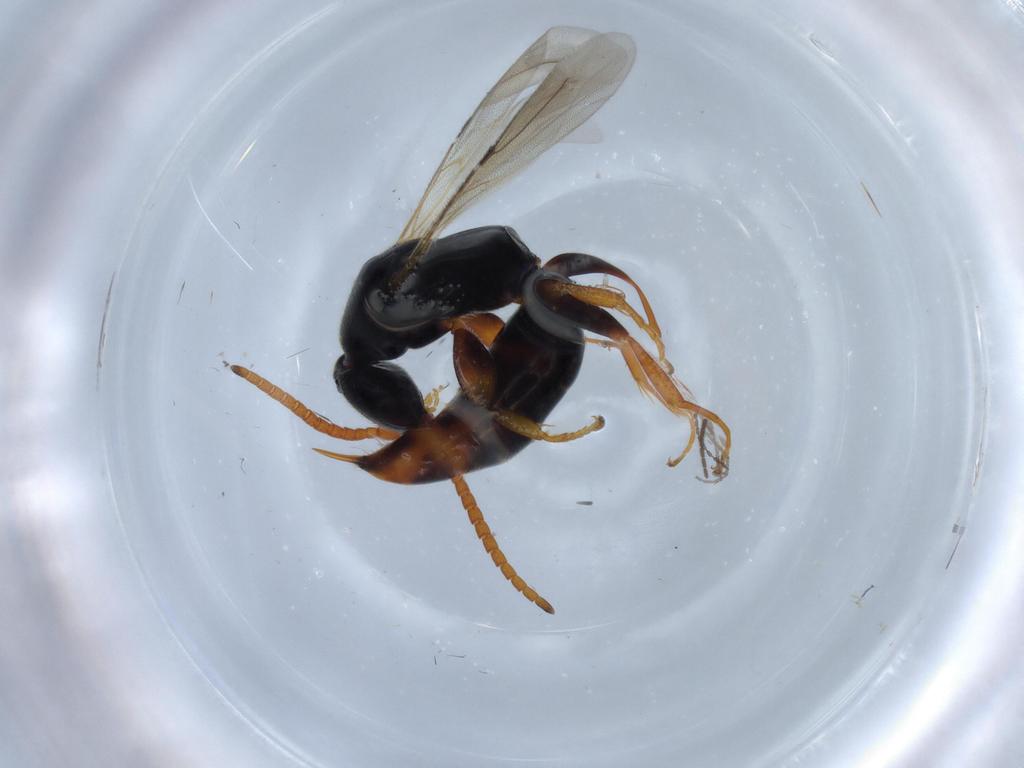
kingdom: Animalia
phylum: Arthropoda
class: Insecta
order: Hymenoptera
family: Bethylidae
